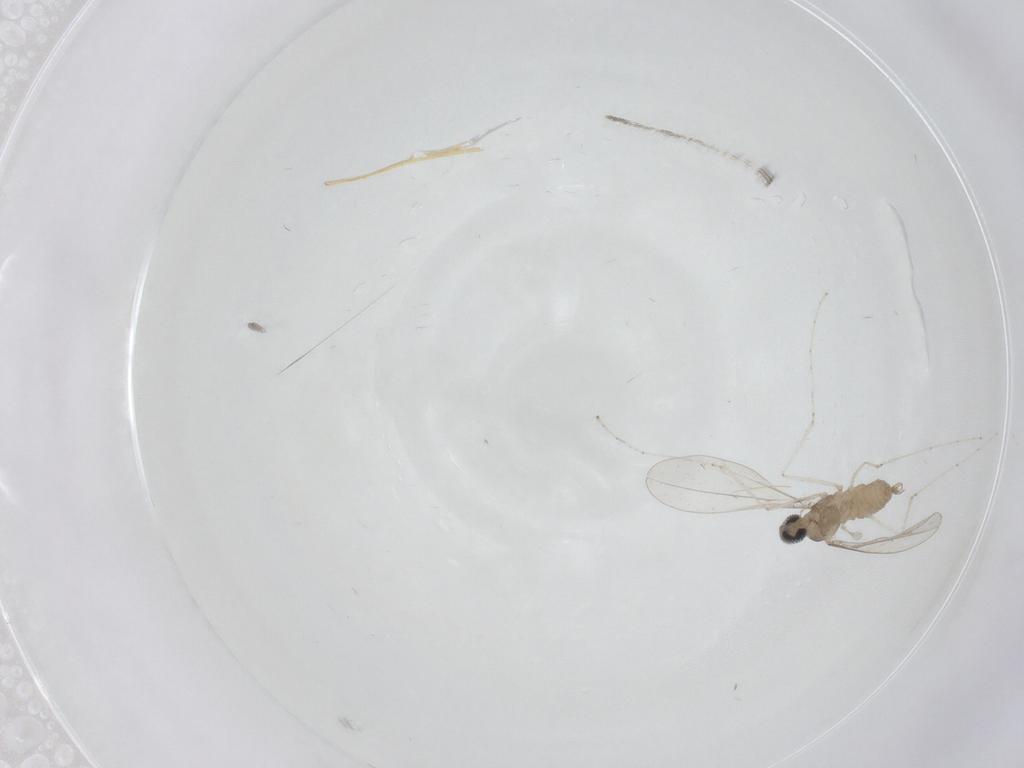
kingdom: Animalia
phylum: Arthropoda
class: Insecta
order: Diptera
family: Cecidomyiidae
